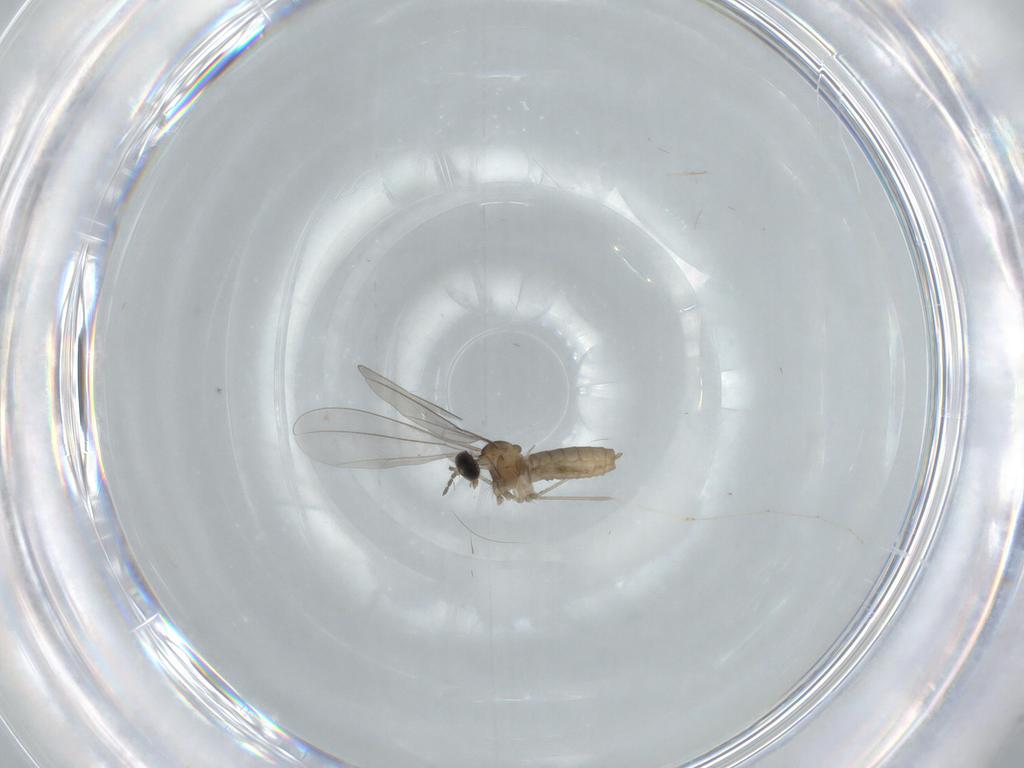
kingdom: Animalia
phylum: Arthropoda
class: Insecta
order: Diptera
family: Cecidomyiidae
